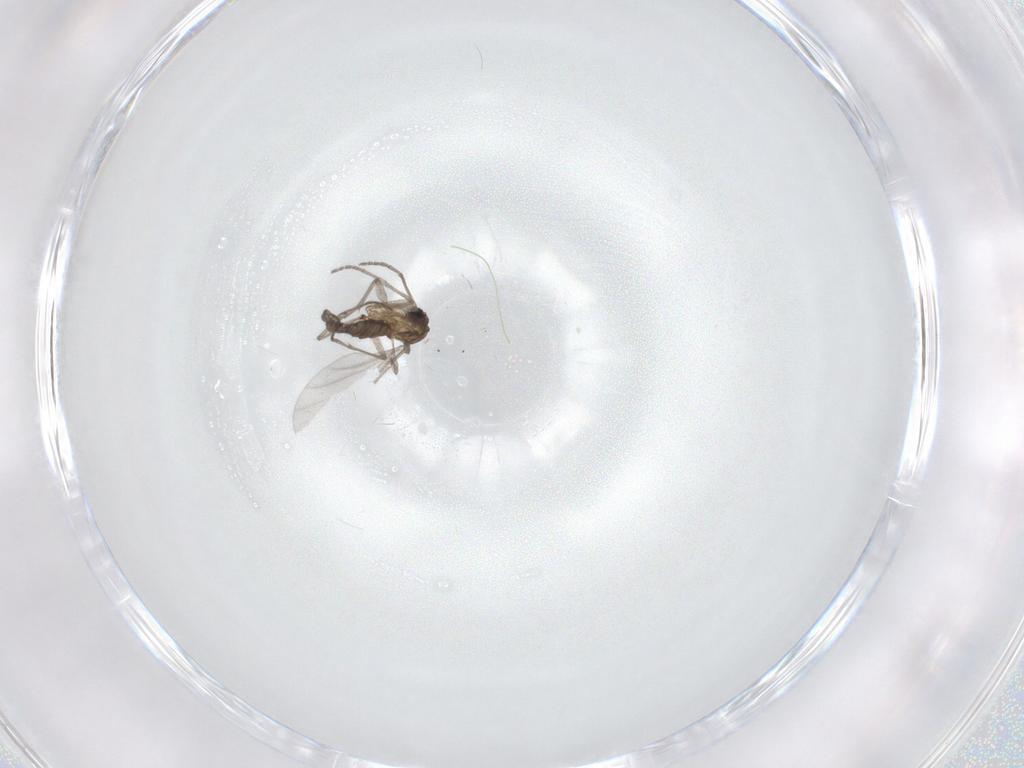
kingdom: Animalia
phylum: Arthropoda
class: Insecta
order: Diptera
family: Sciaridae
